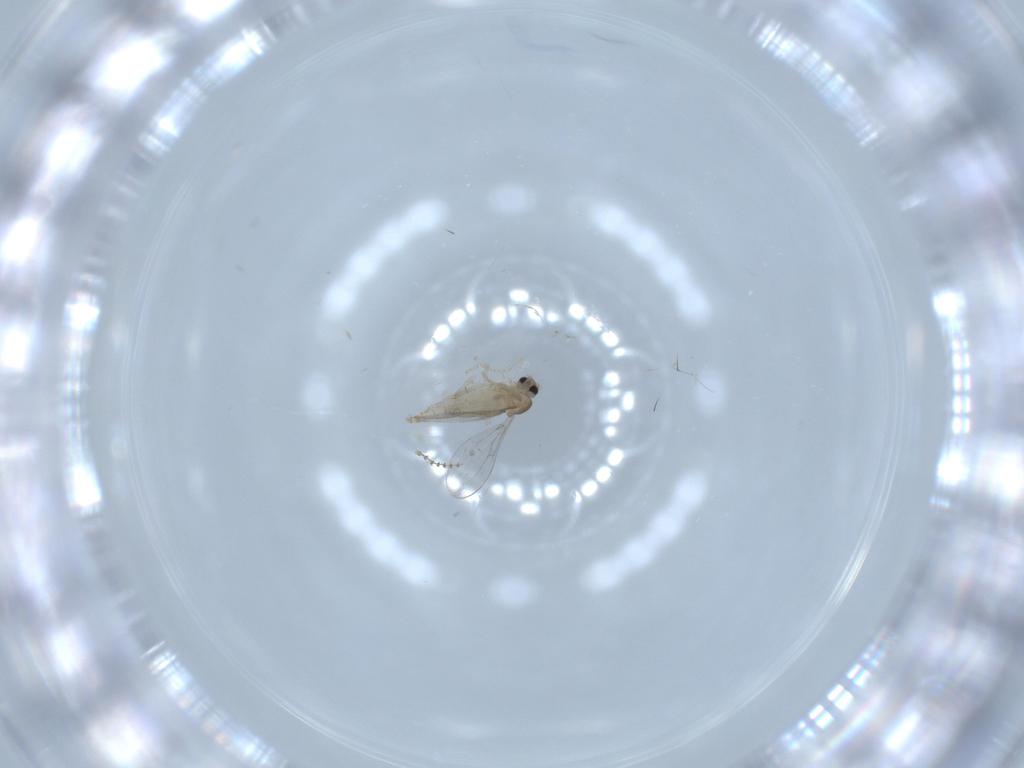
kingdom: Animalia
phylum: Arthropoda
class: Insecta
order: Diptera
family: Cecidomyiidae
